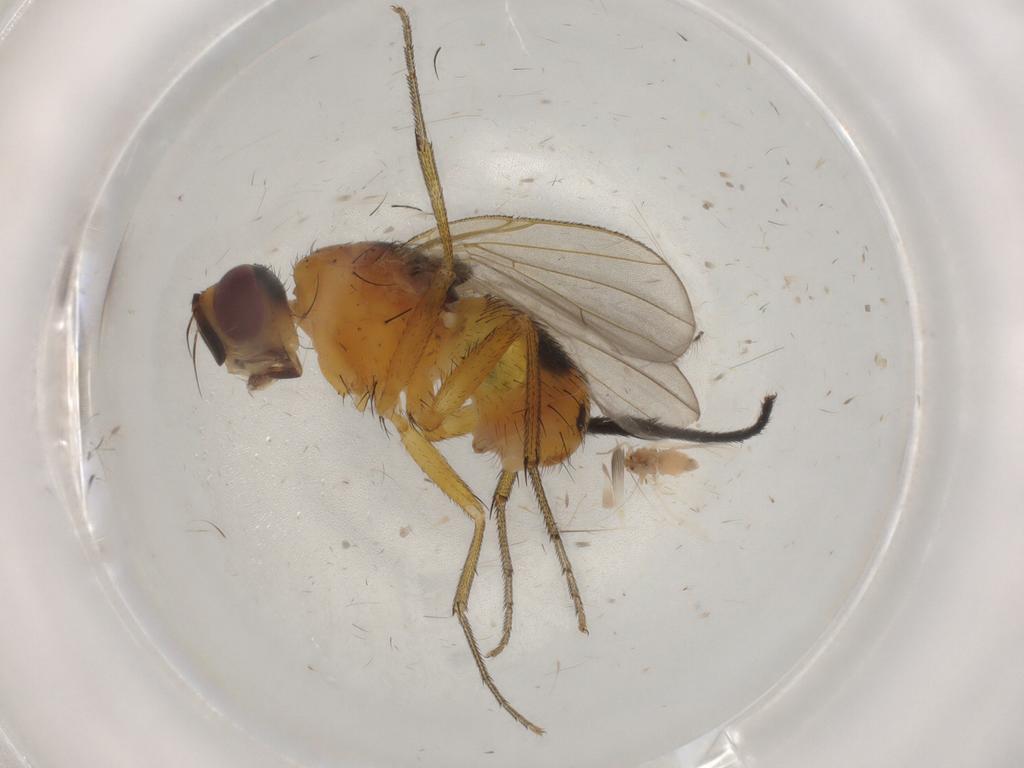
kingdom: Animalia
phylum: Arthropoda
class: Insecta
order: Diptera
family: Muscidae
